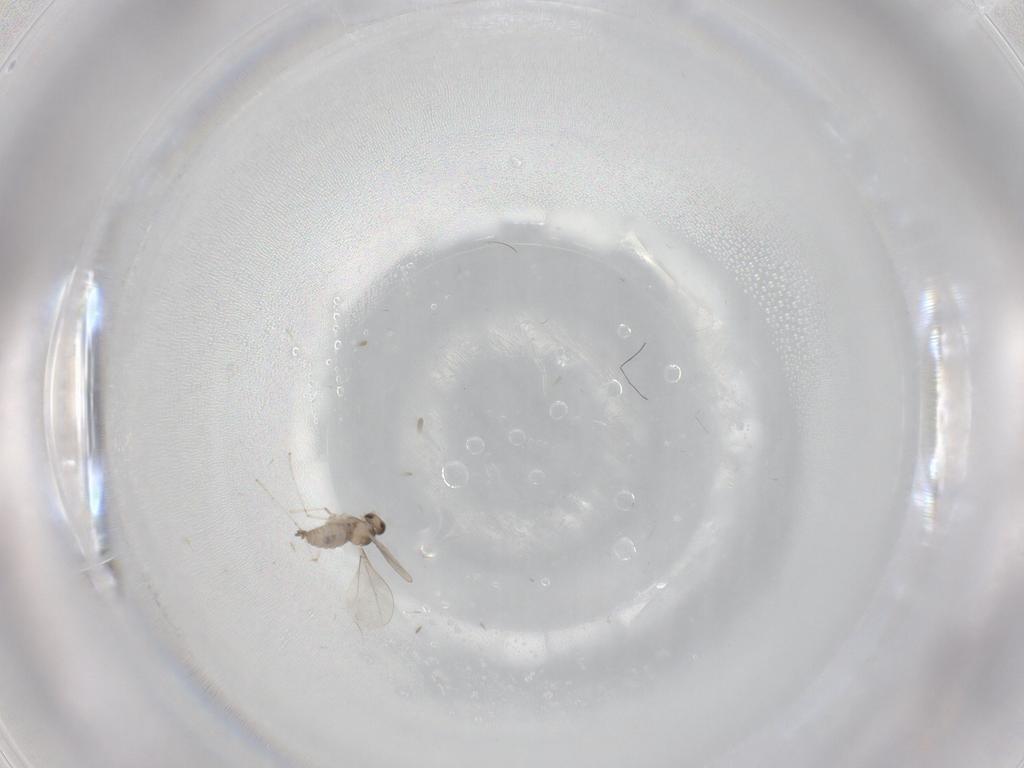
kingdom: Animalia
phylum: Arthropoda
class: Insecta
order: Diptera
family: Cecidomyiidae
